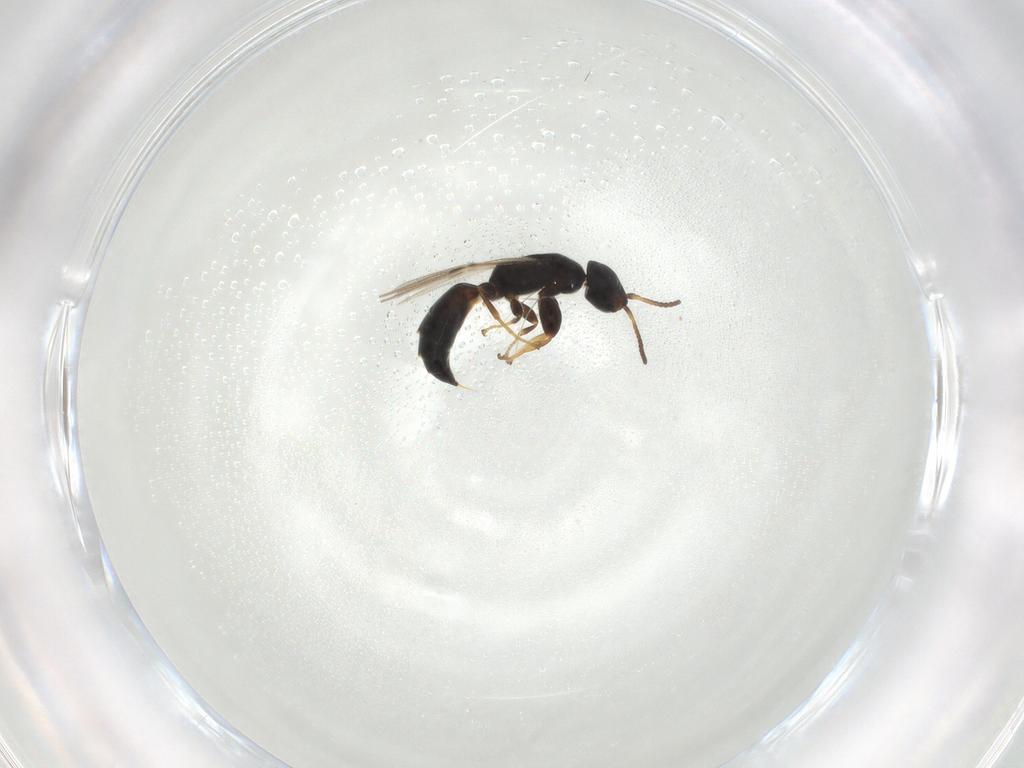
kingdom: Animalia
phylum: Arthropoda
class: Insecta
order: Hymenoptera
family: Bethylidae
